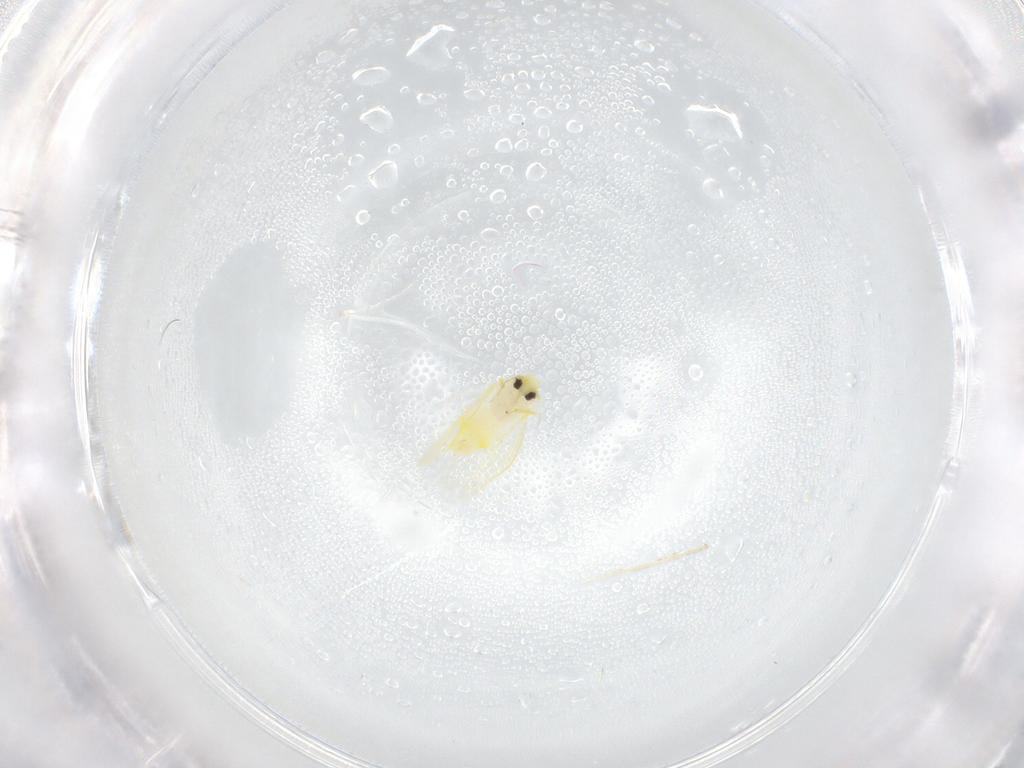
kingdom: Animalia
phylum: Arthropoda
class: Insecta
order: Hemiptera
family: Aleyrodidae
